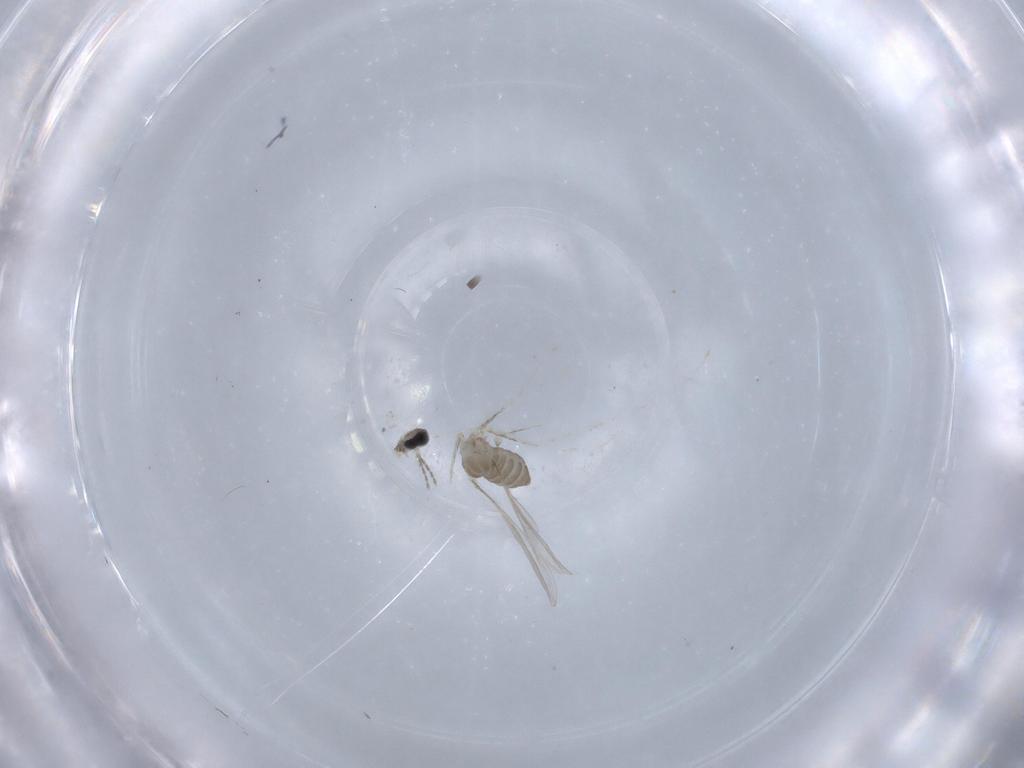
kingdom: Animalia
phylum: Arthropoda
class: Insecta
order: Diptera
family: Cecidomyiidae
